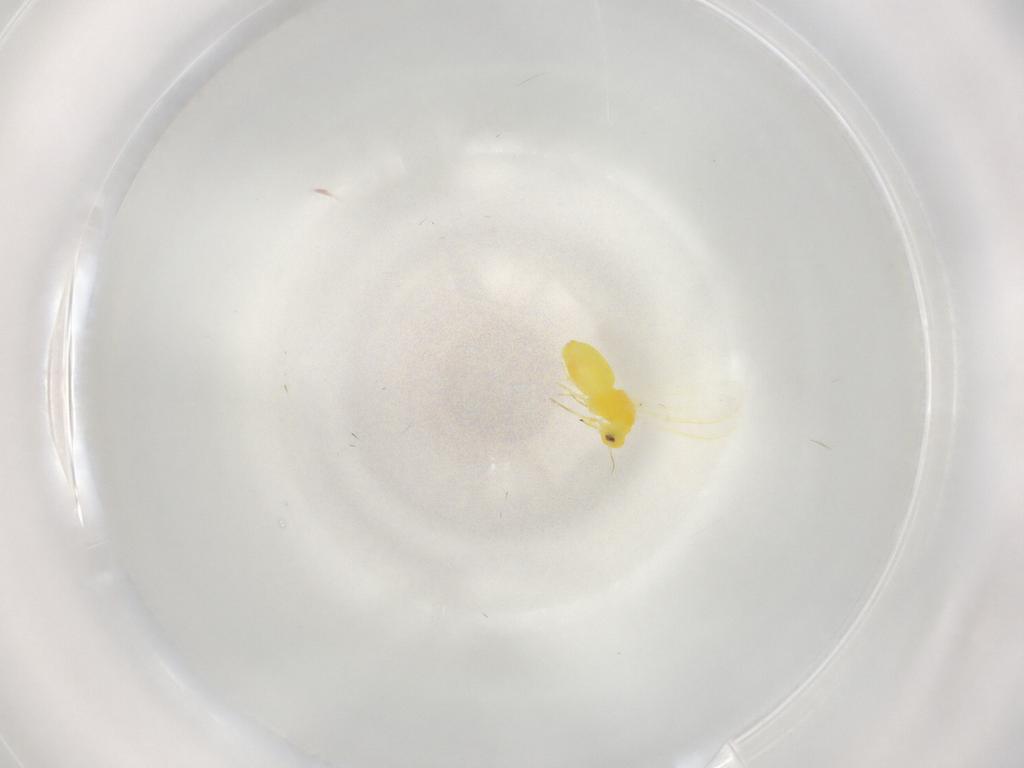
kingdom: Animalia
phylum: Arthropoda
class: Insecta
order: Hemiptera
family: Aleyrodidae
